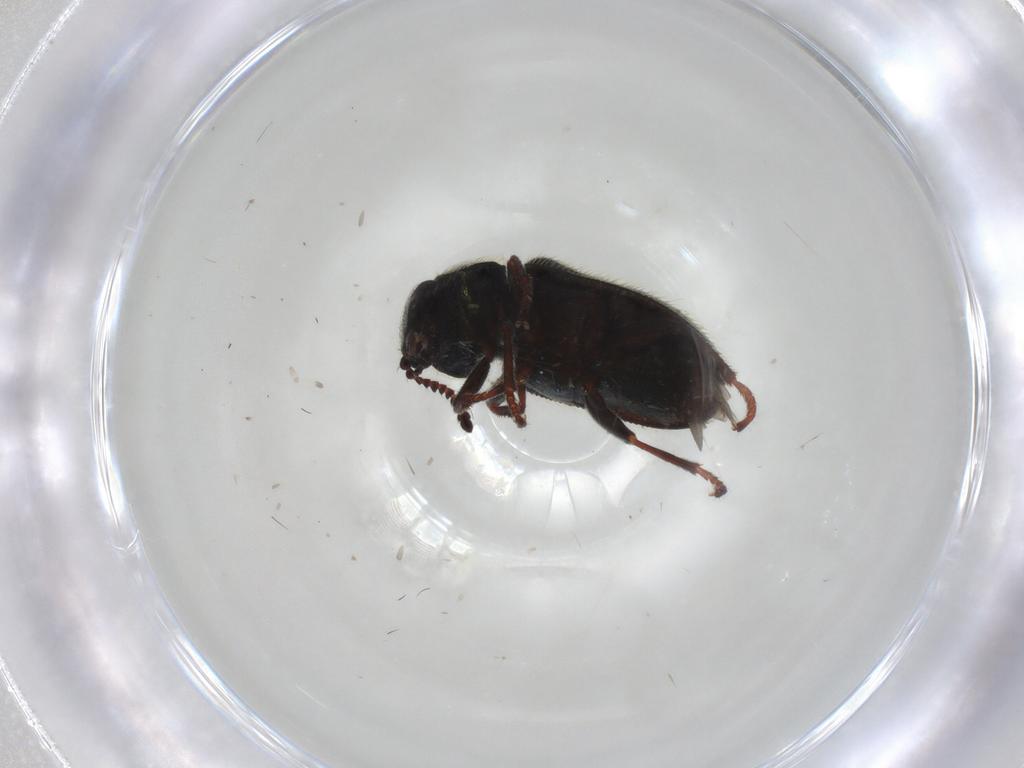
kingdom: Animalia
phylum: Arthropoda
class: Insecta
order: Coleoptera
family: Melyridae
